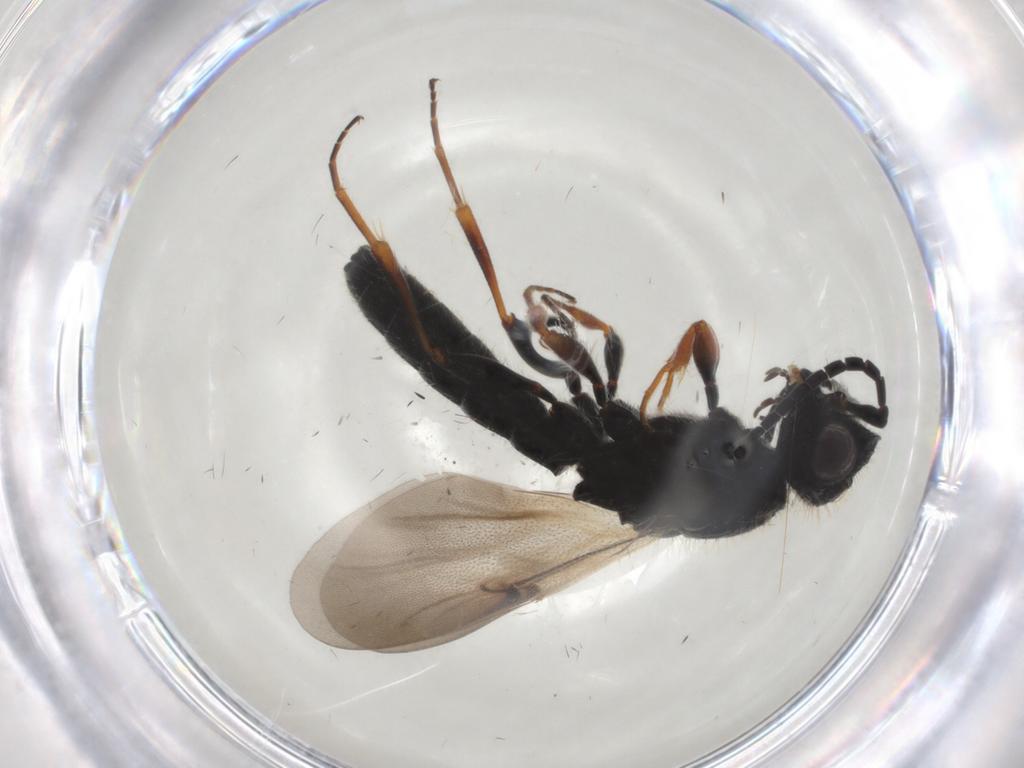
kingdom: Animalia
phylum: Arthropoda
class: Insecta
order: Hymenoptera
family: Scelionidae
